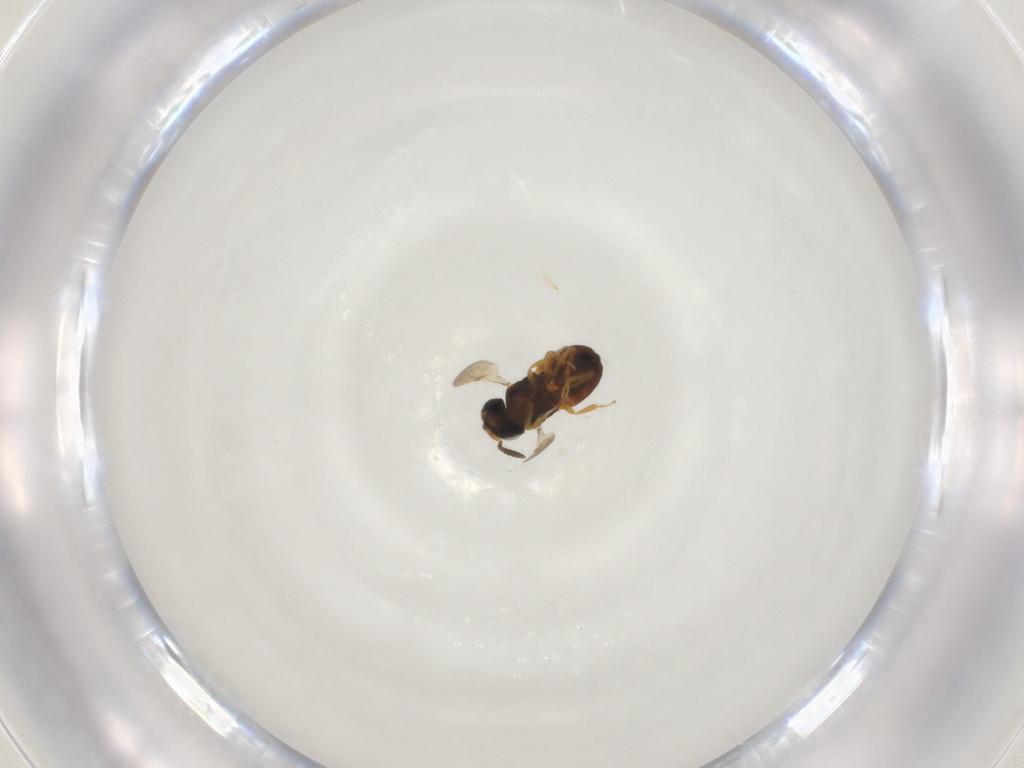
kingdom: Animalia
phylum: Arthropoda
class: Insecta
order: Hymenoptera
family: Scelionidae
